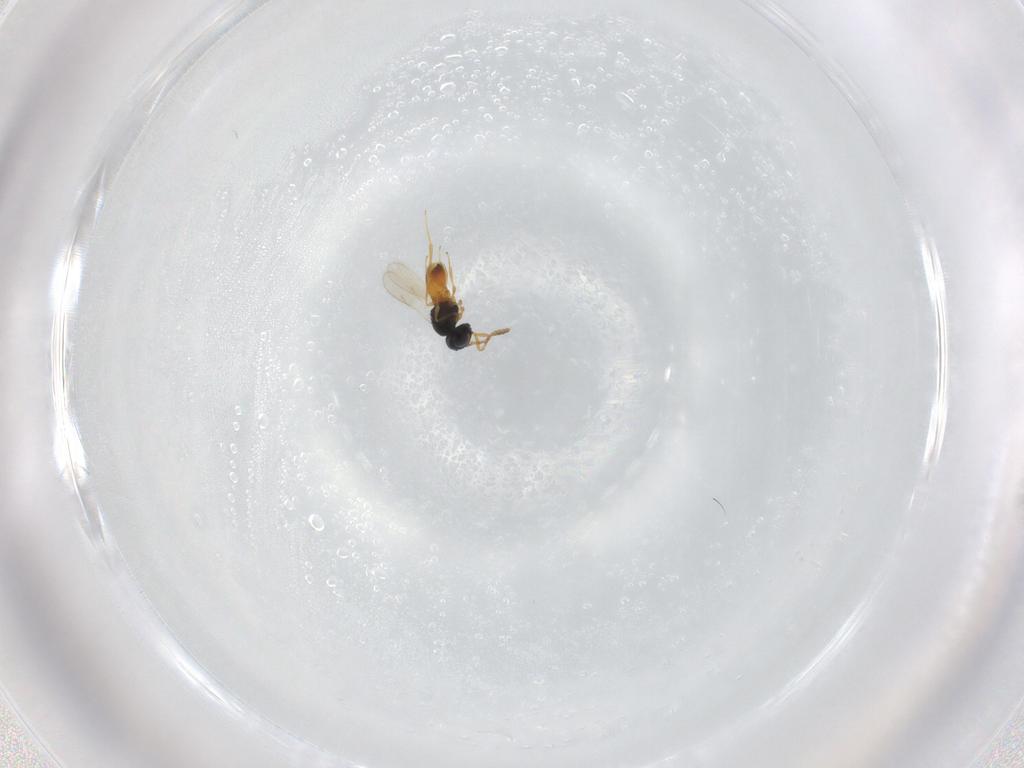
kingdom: Animalia
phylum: Arthropoda
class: Insecta
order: Hymenoptera
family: Scelionidae
